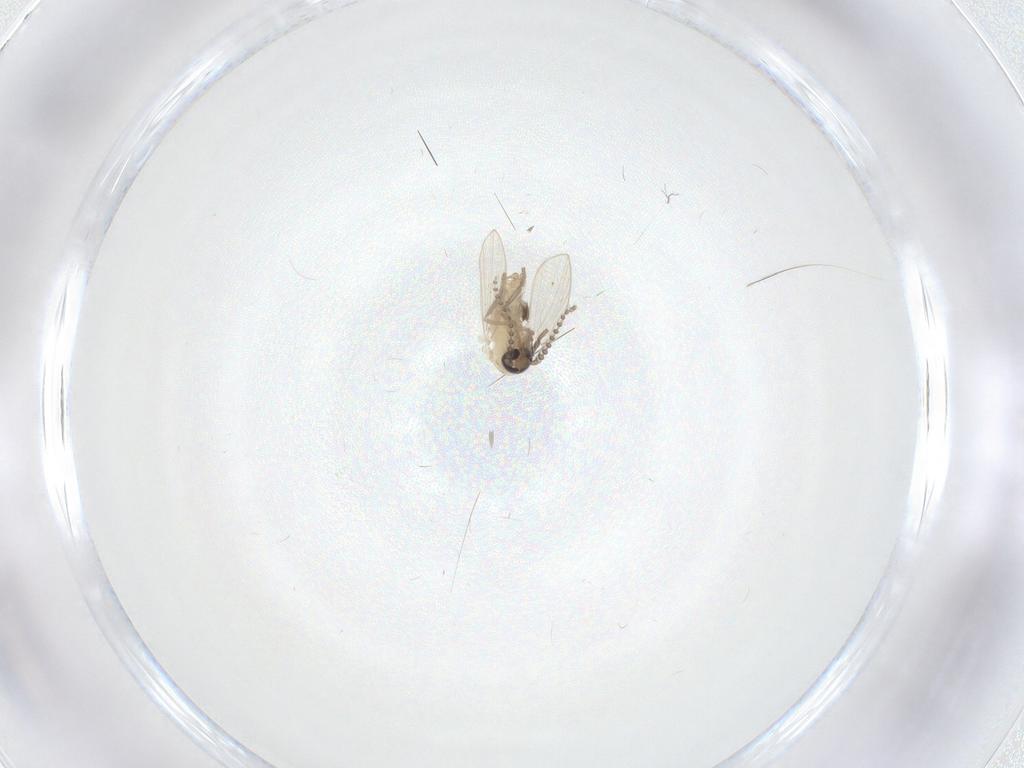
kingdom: Animalia
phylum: Arthropoda
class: Insecta
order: Diptera
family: Psychodidae
